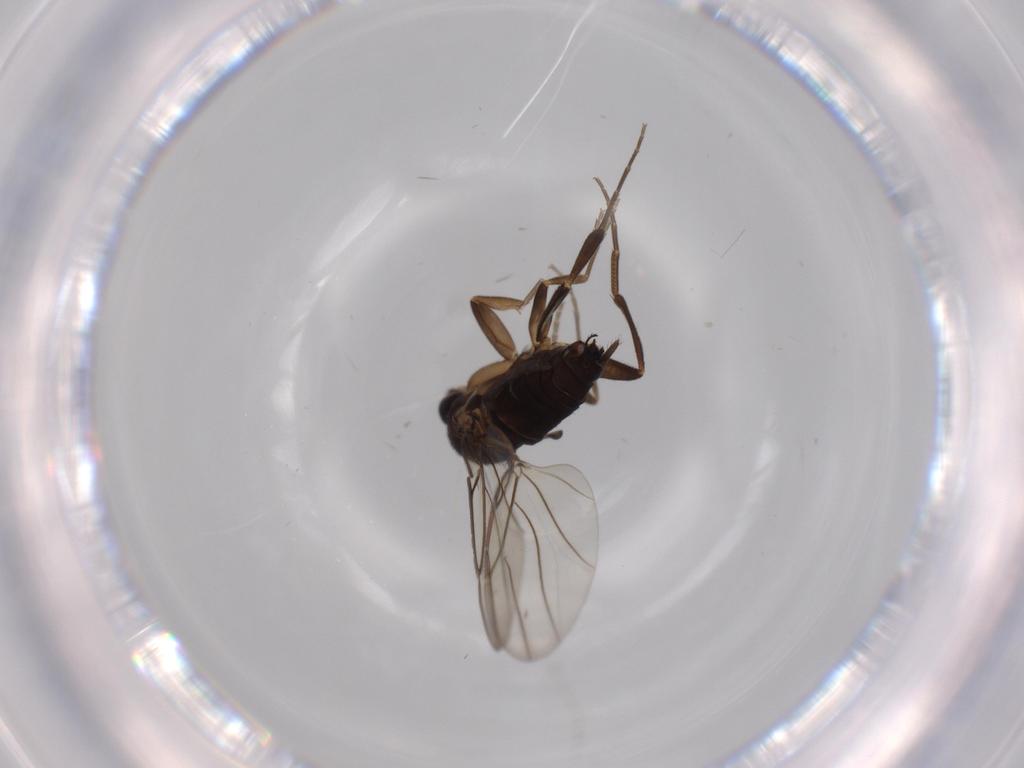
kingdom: Animalia
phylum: Arthropoda
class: Insecta
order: Diptera
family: Phoridae
